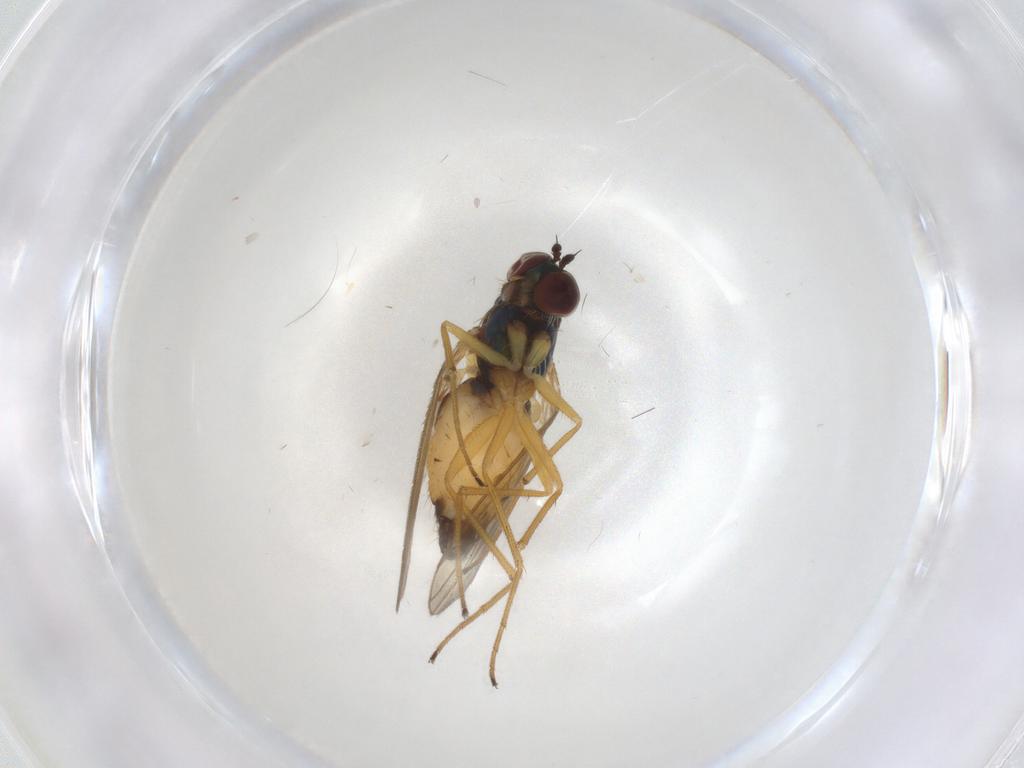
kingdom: Animalia
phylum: Arthropoda
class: Insecta
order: Diptera
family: Dolichopodidae
